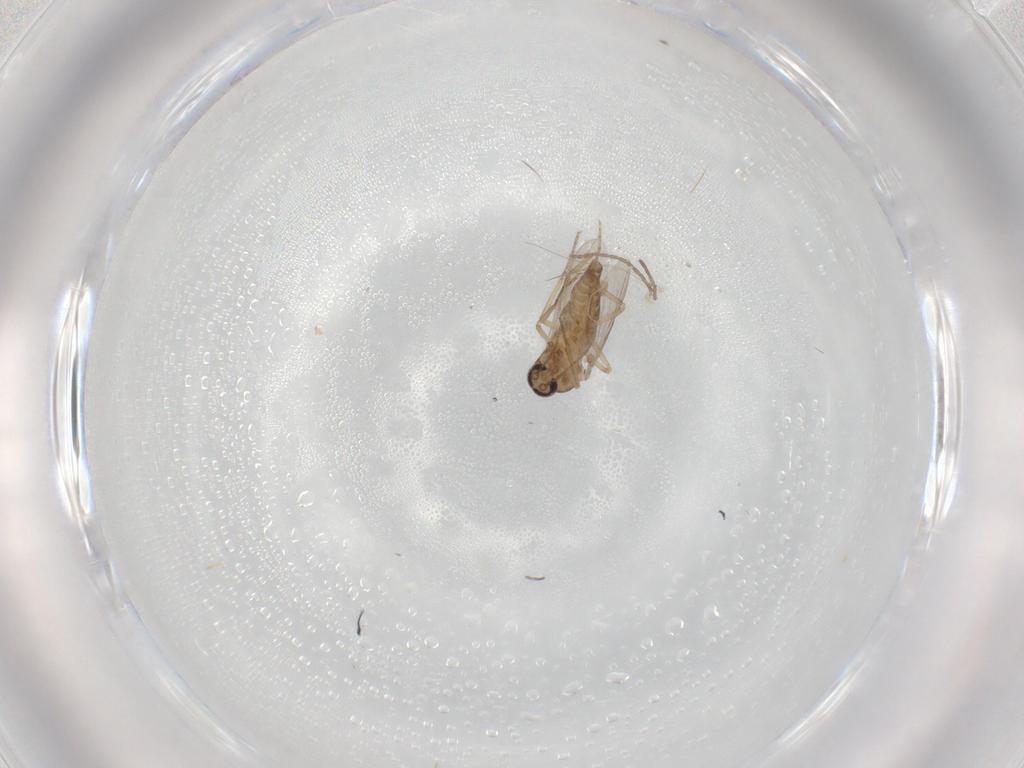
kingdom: Animalia
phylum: Arthropoda
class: Insecta
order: Diptera
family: Ceratopogonidae
